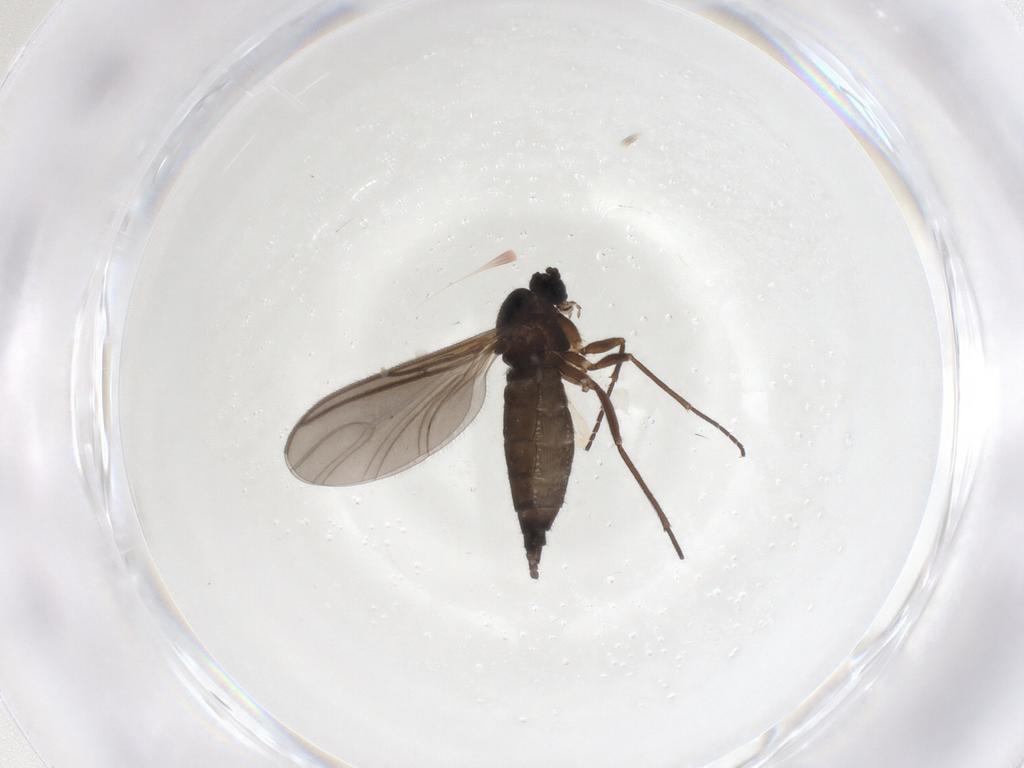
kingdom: Animalia
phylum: Arthropoda
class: Insecta
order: Diptera
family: Sciaridae
